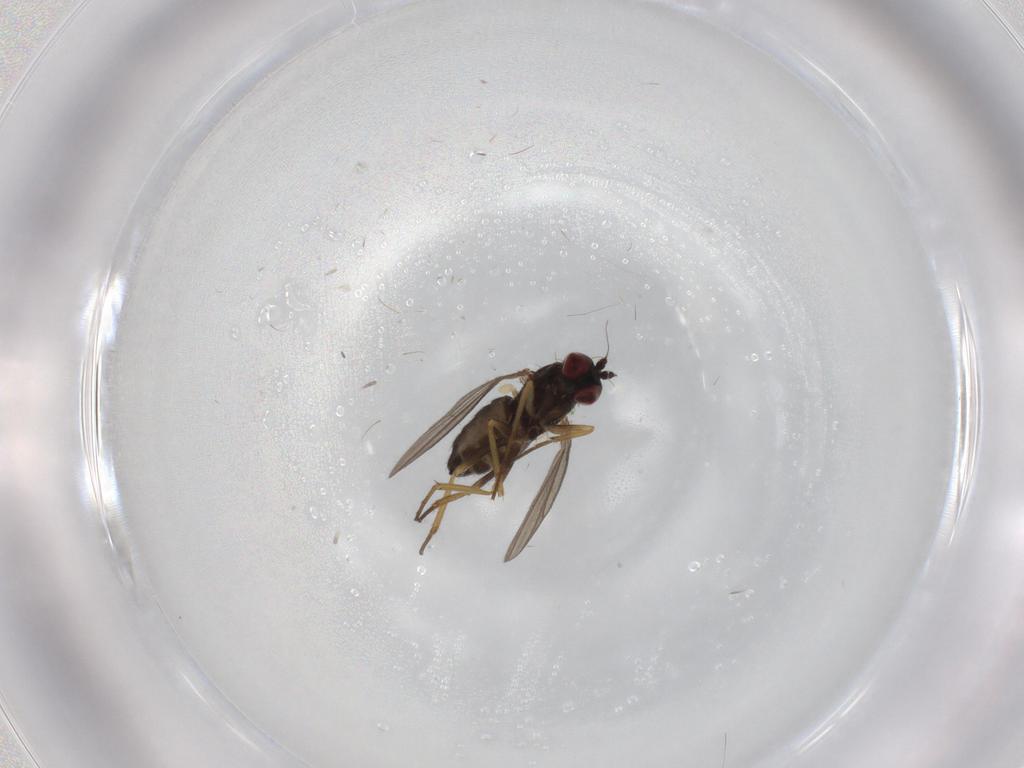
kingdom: Animalia
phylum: Arthropoda
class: Insecta
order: Diptera
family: Dolichopodidae
